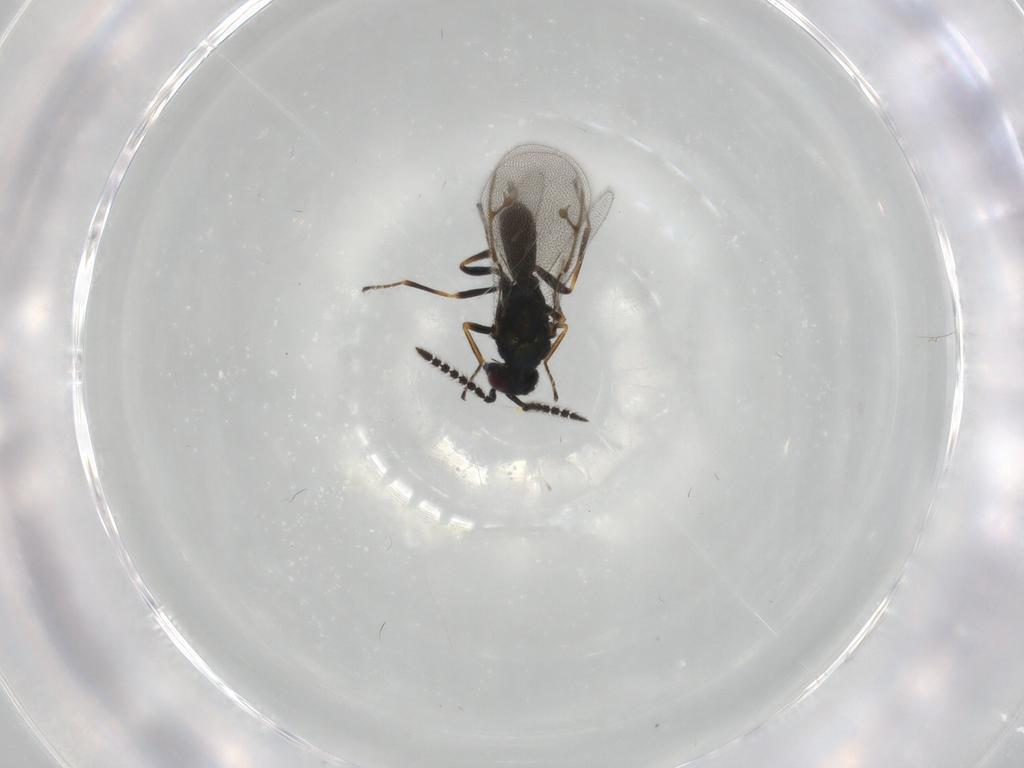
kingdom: Animalia
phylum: Arthropoda
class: Insecta
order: Hymenoptera
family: Pirenidae
